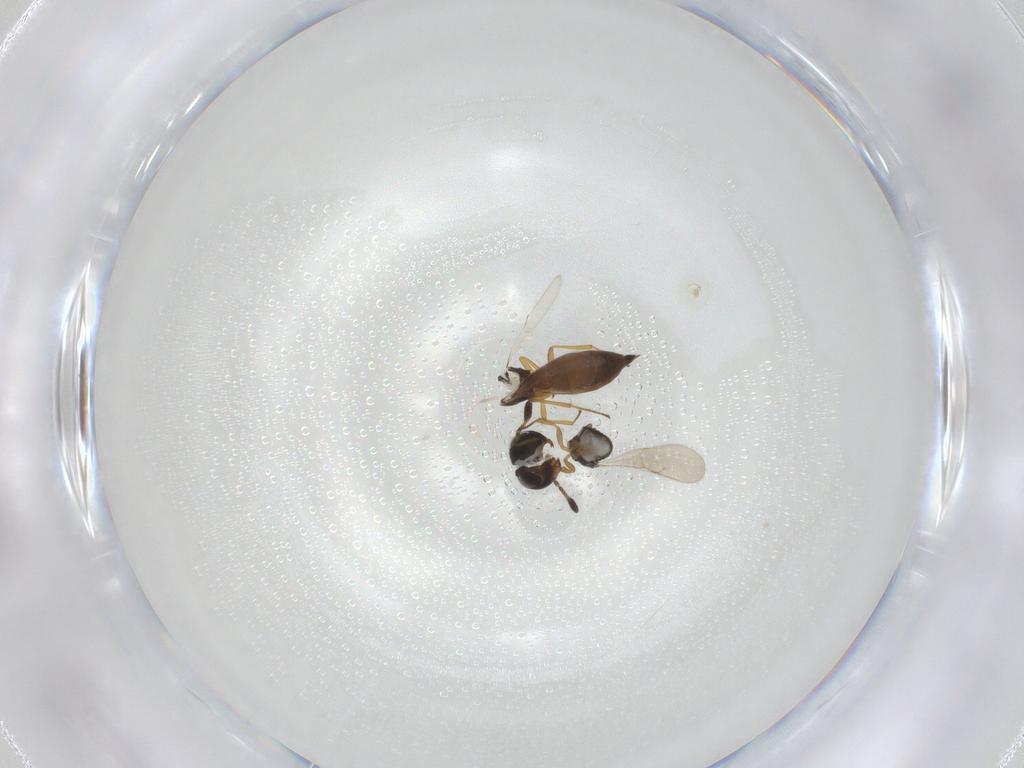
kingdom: Animalia
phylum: Arthropoda
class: Insecta
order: Hymenoptera
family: Scelionidae
